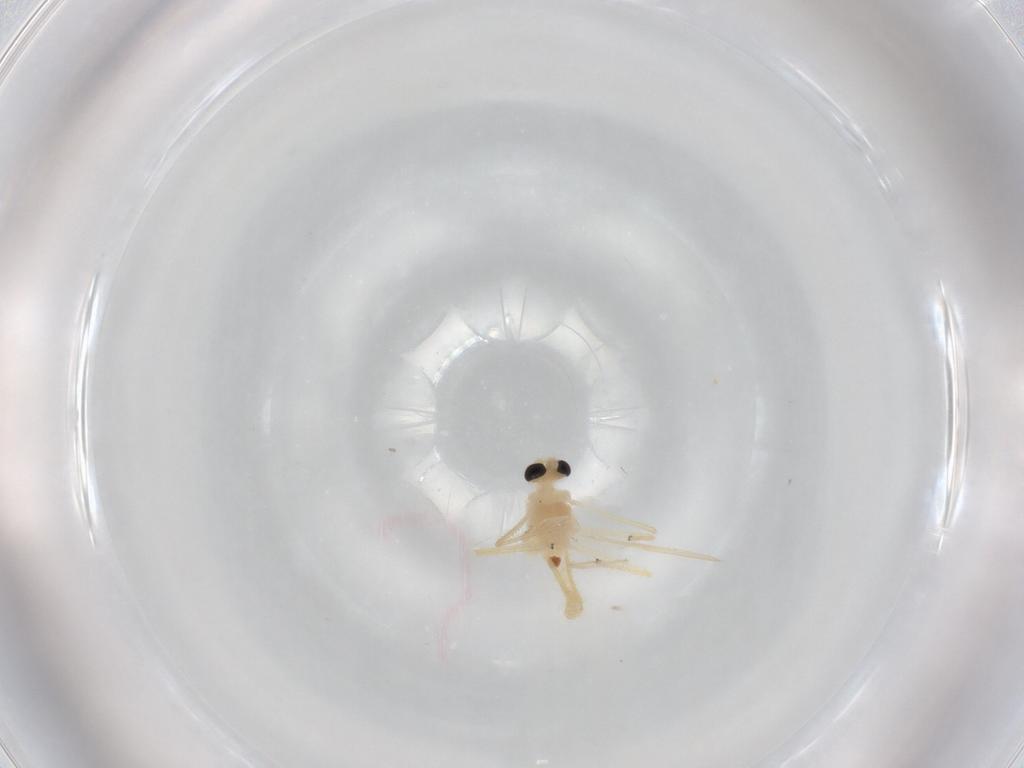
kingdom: Animalia
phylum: Arthropoda
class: Insecta
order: Diptera
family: Chironomidae
